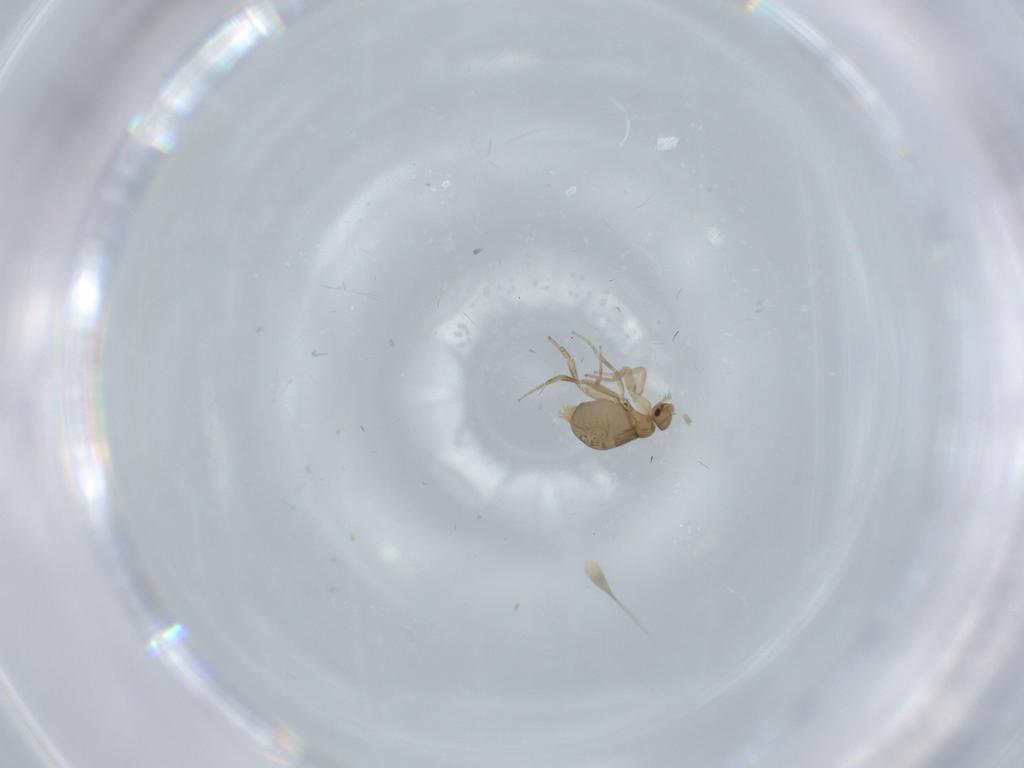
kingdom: Animalia
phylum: Arthropoda
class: Insecta
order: Diptera
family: Phoridae
